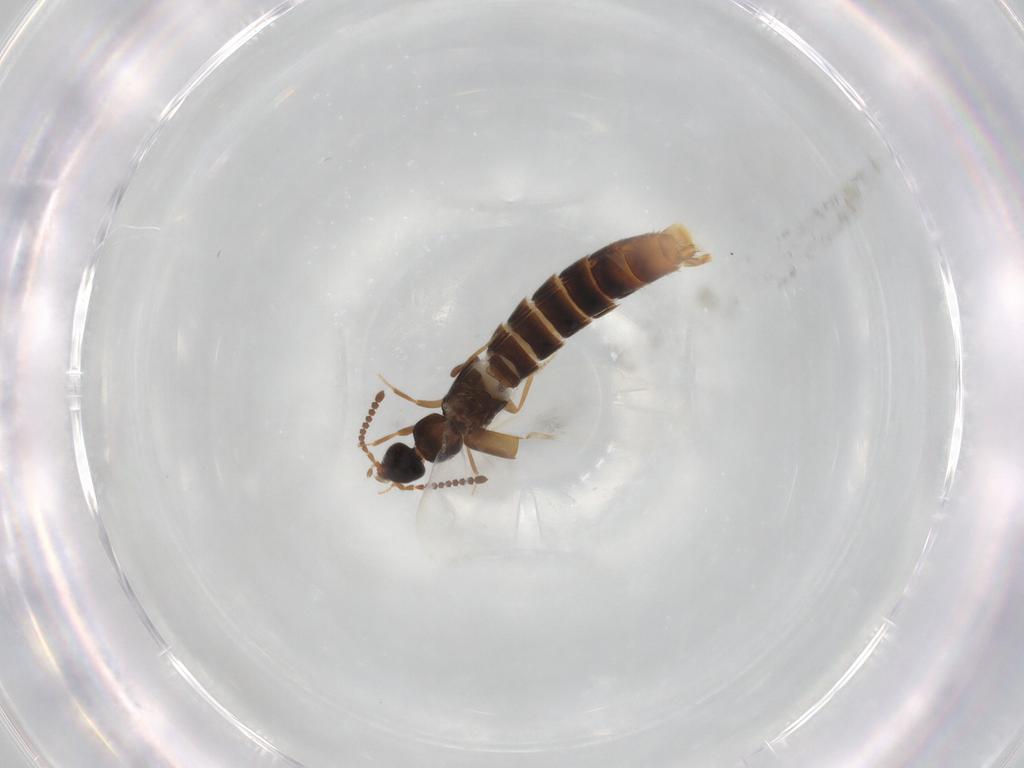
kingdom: Animalia
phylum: Arthropoda
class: Insecta
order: Coleoptera
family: Staphylinidae
